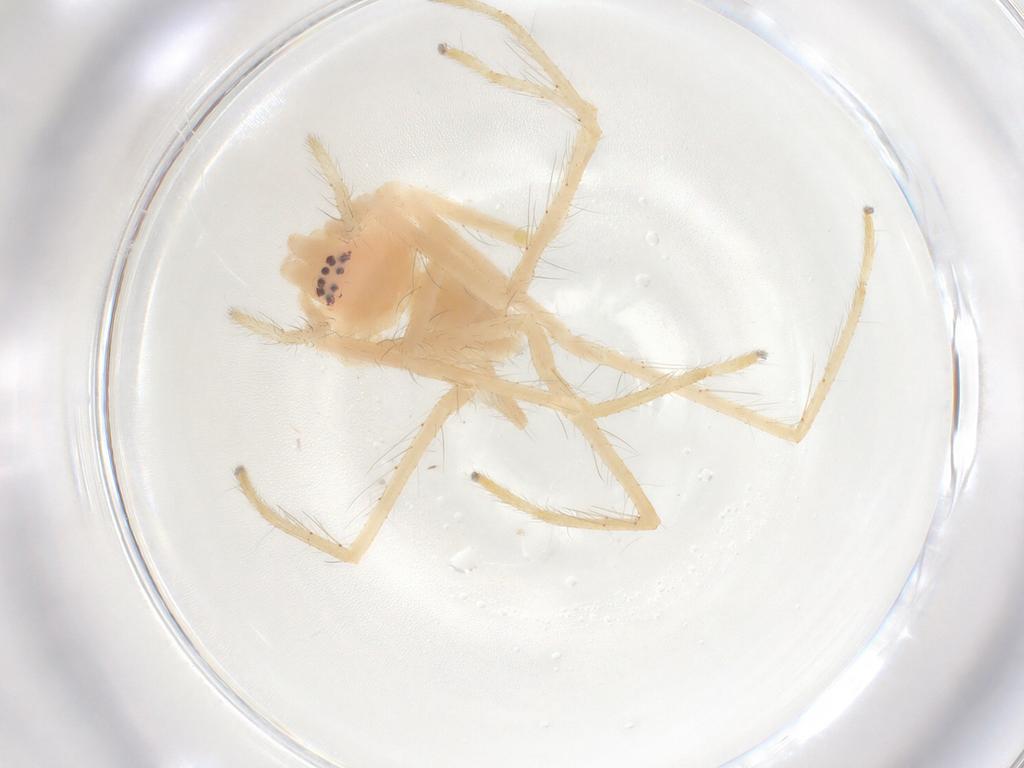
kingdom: Animalia
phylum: Arthropoda
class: Arachnida
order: Araneae
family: Sparassidae
